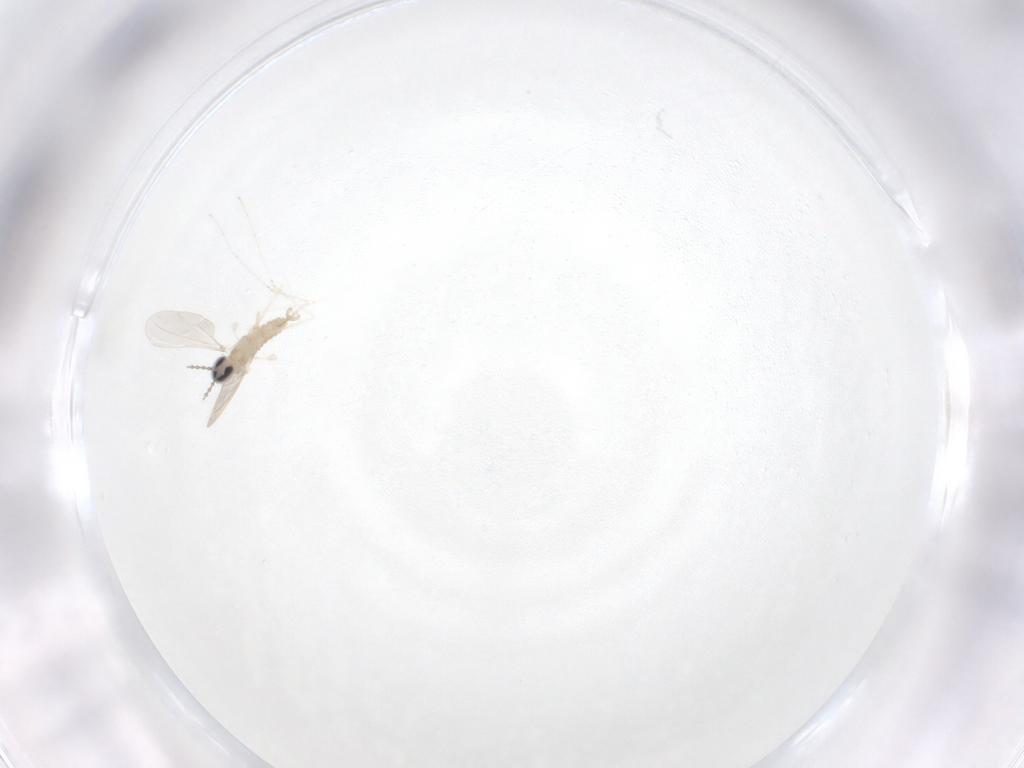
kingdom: Animalia
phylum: Arthropoda
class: Insecta
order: Diptera
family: Cecidomyiidae
